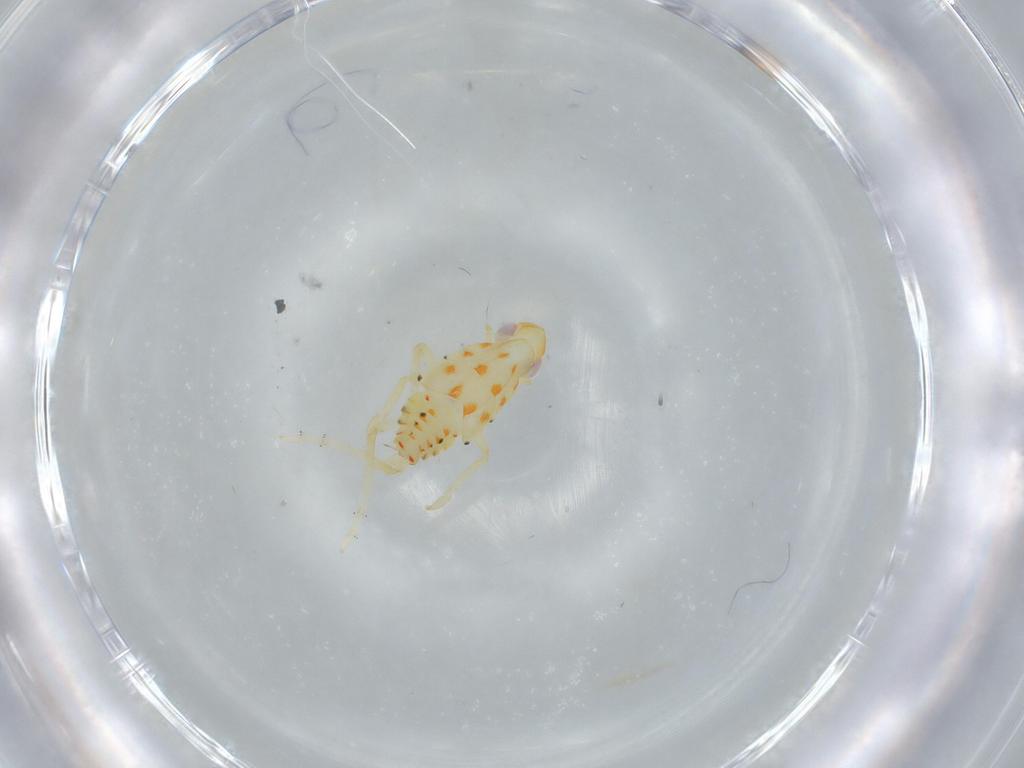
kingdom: Animalia
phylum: Arthropoda
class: Insecta
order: Hemiptera
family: Tropiduchidae
